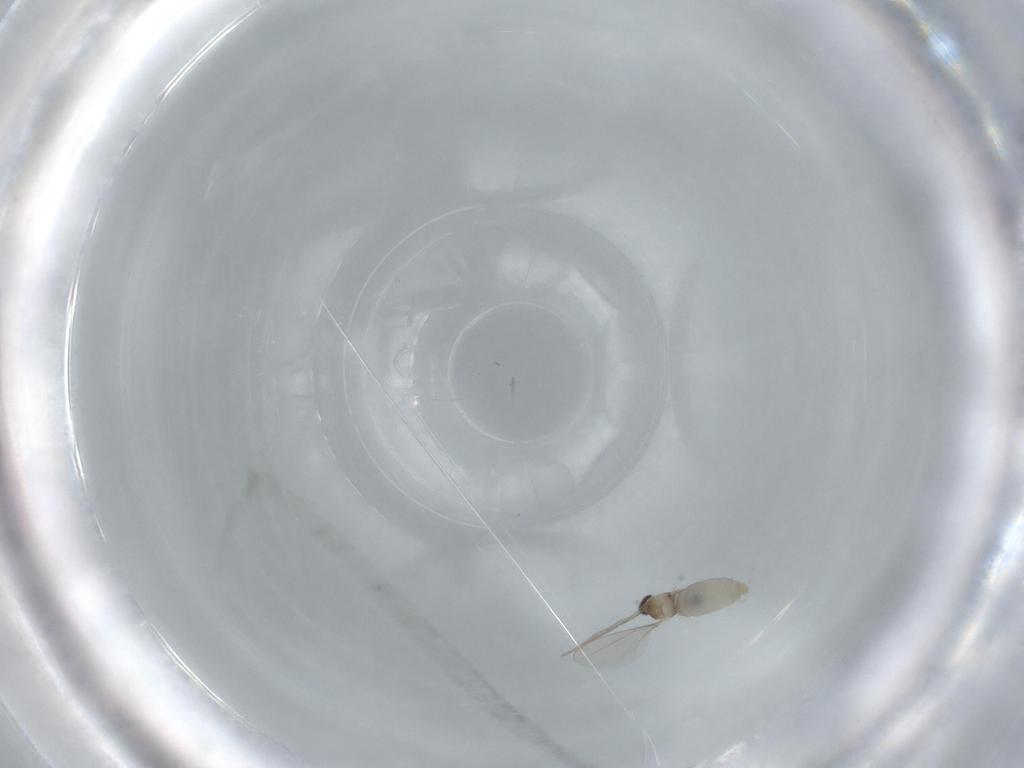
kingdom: Animalia
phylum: Arthropoda
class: Insecta
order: Diptera
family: Cecidomyiidae
